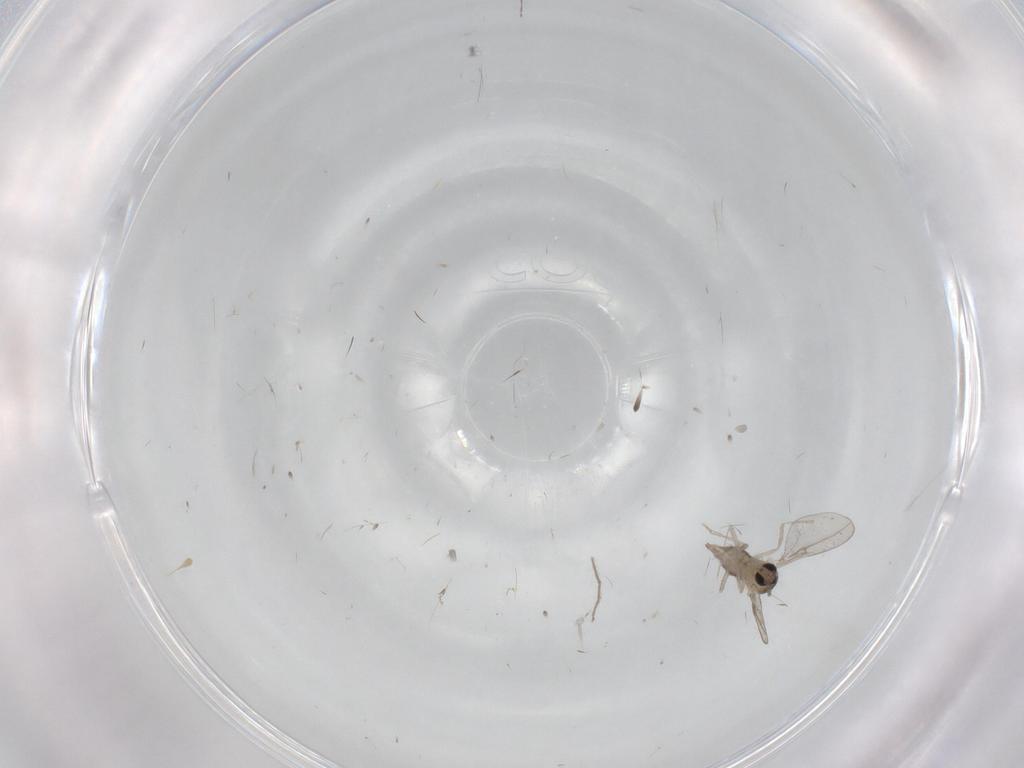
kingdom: Animalia
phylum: Arthropoda
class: Insecta
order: Diptera
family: Cecidomyiidae
